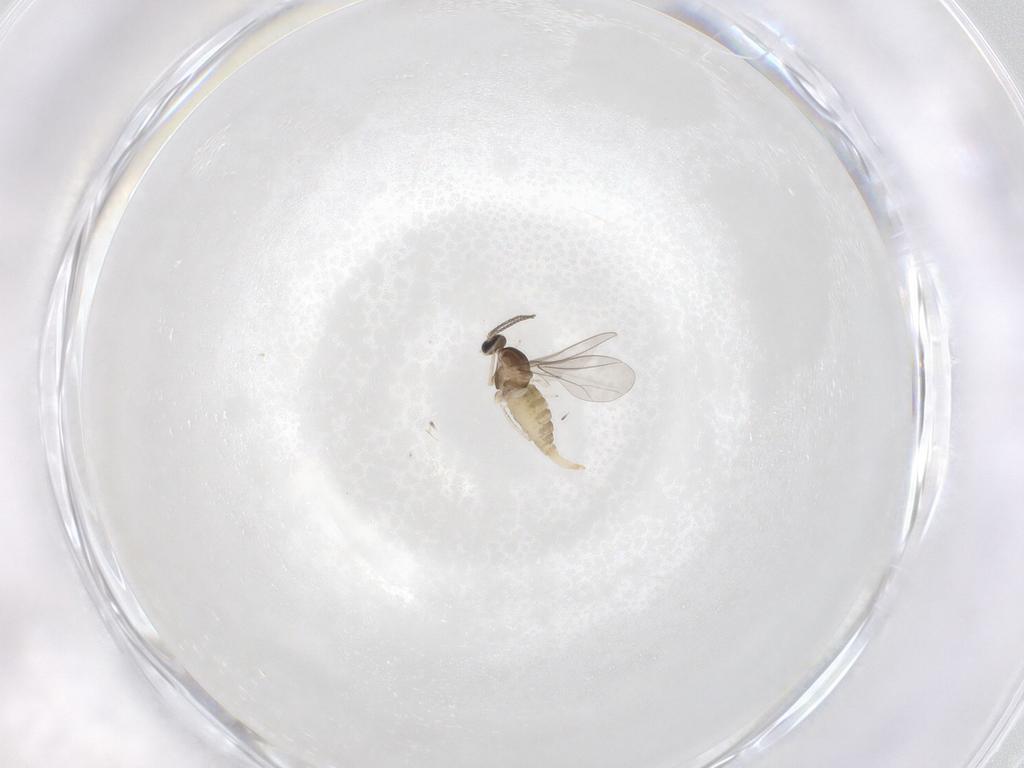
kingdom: Animalia
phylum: Arthropoda
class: Insecta
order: Diptera
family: Cecidomyiidae
